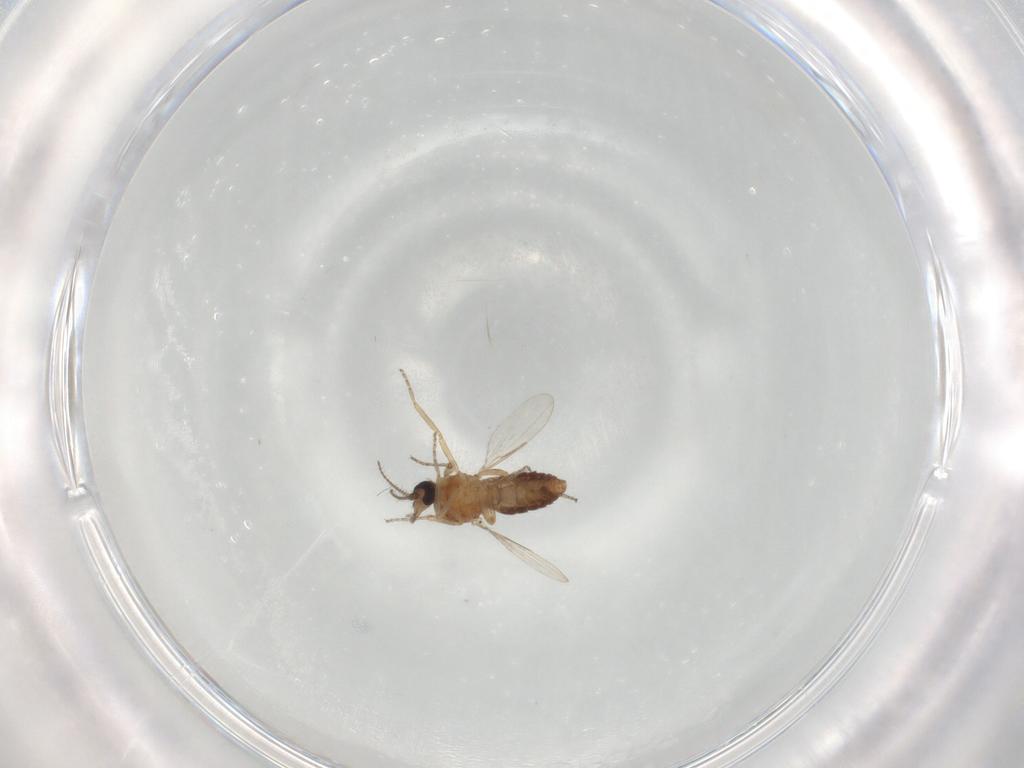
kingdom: Animalia
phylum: Arthropoda
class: Insecta
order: Diptera
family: Ceratopogonidae
